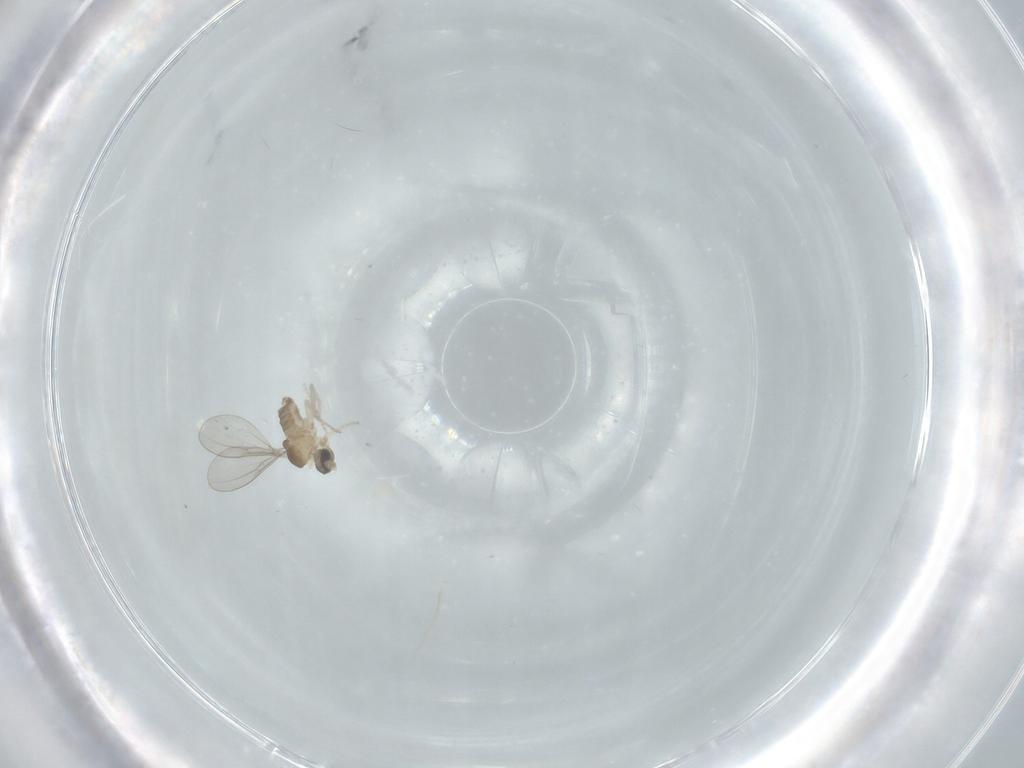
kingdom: Animalia
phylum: Arthropoda
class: Insecta
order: Diptera
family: Cecidomyiidae
